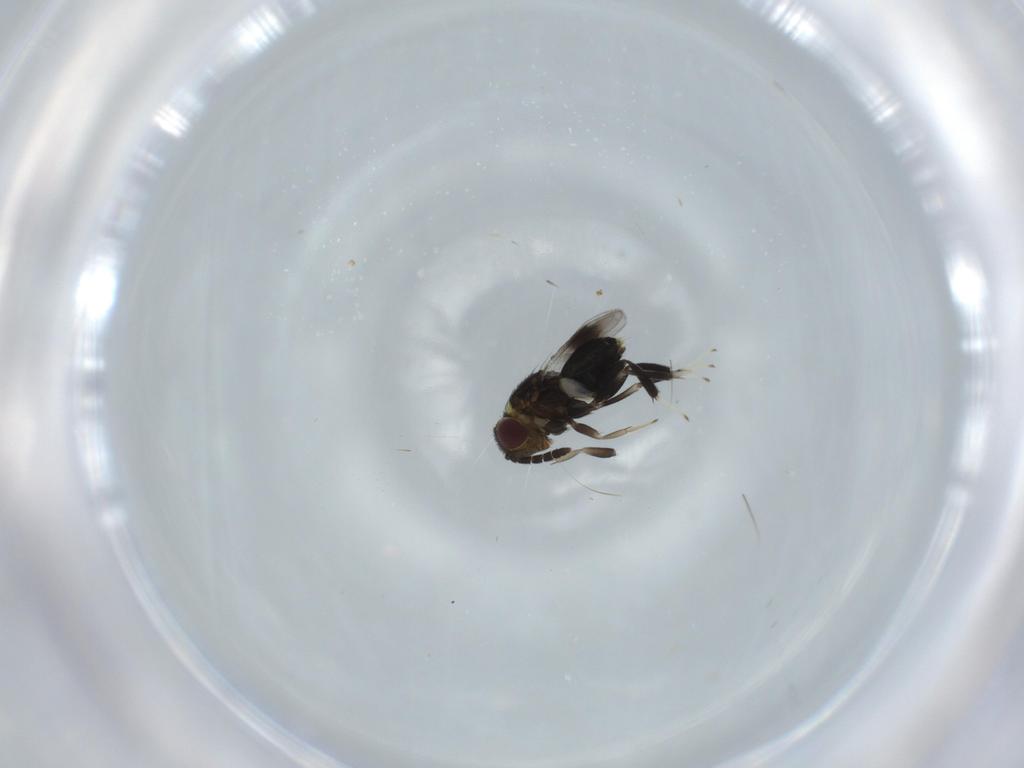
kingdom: Animalia
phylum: Arthropoda
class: Insecta
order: Hymenoptera
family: Aphelinidae
